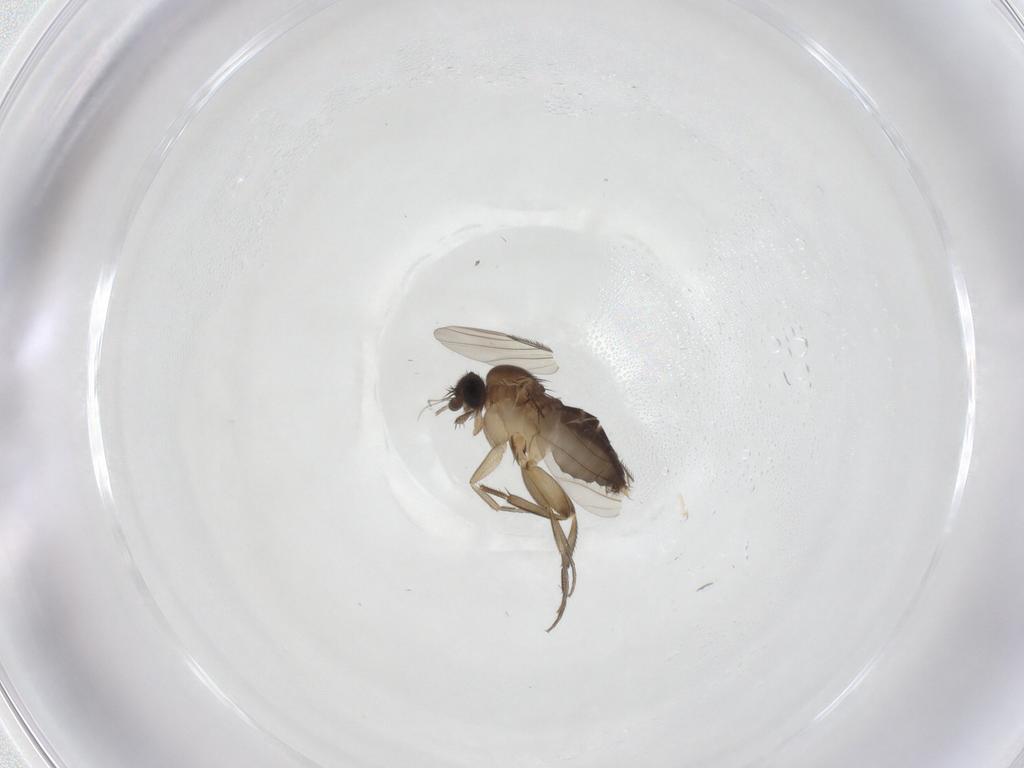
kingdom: Animalia
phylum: Arthropoda
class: Insecta
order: Diptera
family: Phoridae
